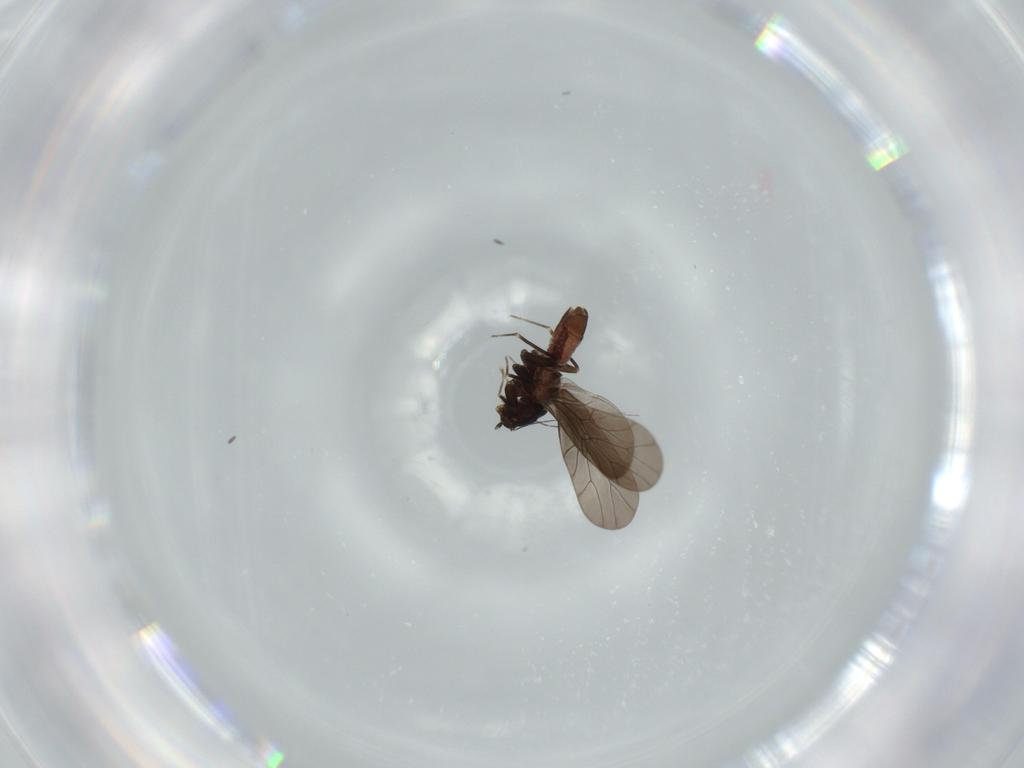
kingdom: Animalia
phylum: Arthropoda
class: Insecta
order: Psocodea
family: Lepidopsocidae
